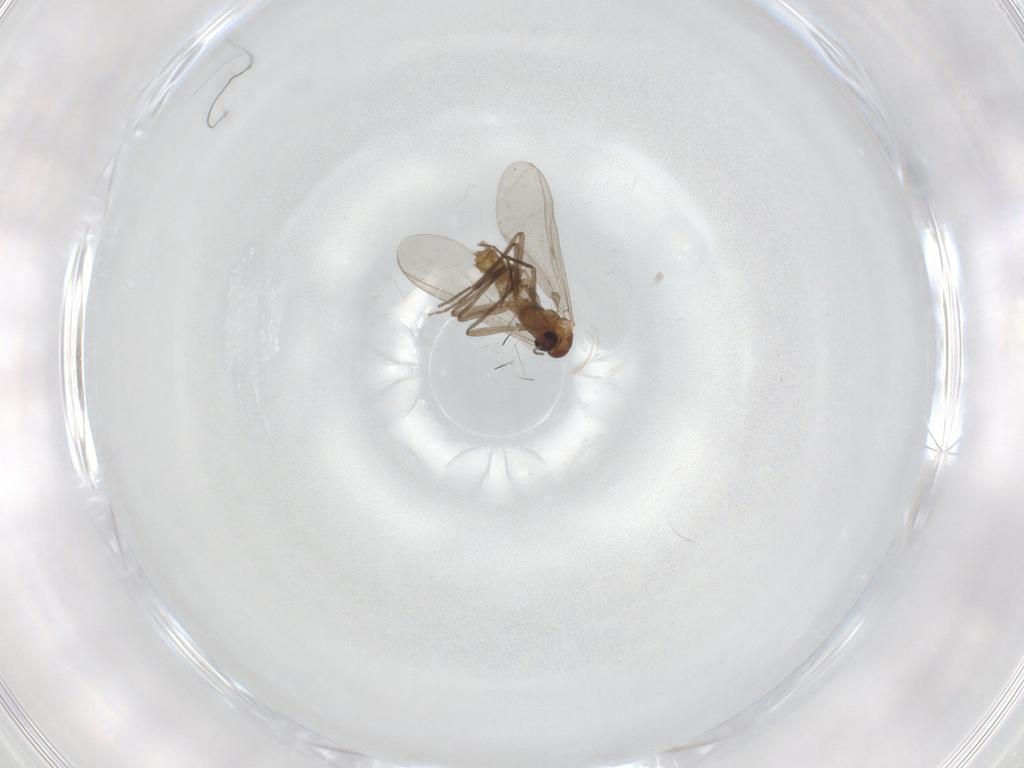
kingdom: Animalia
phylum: Arthropoda
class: Insecta
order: Diptera
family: Chironomidae
